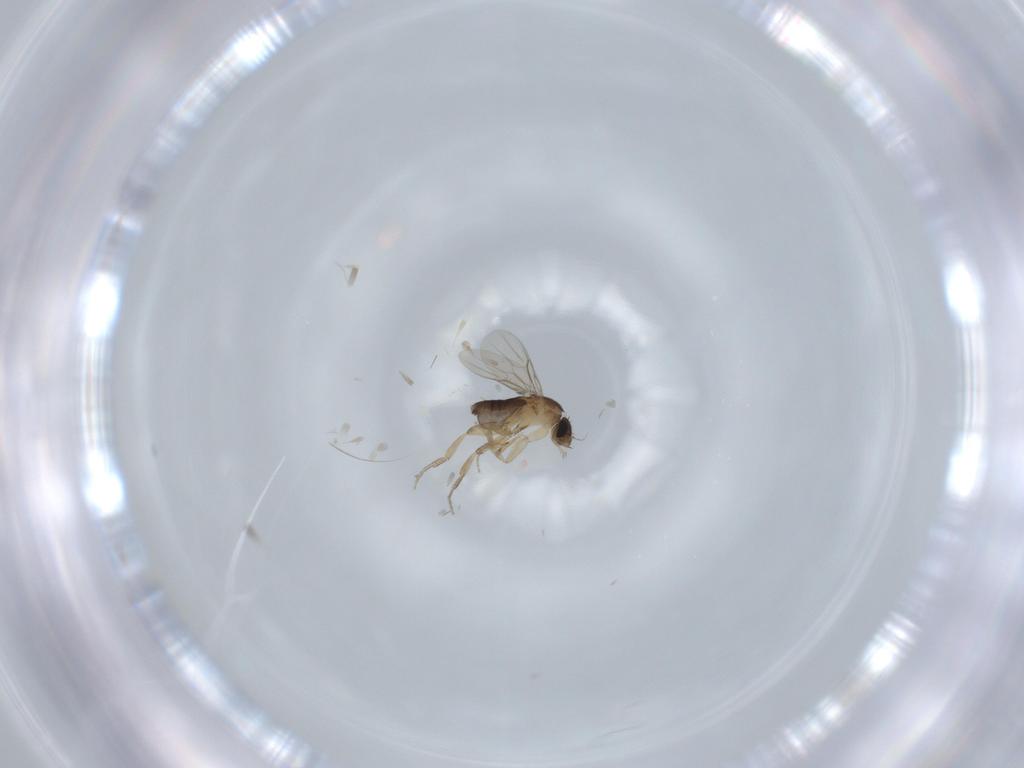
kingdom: Animalia
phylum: Arthropoda
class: Insecta
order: Diptera
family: Phoridae
